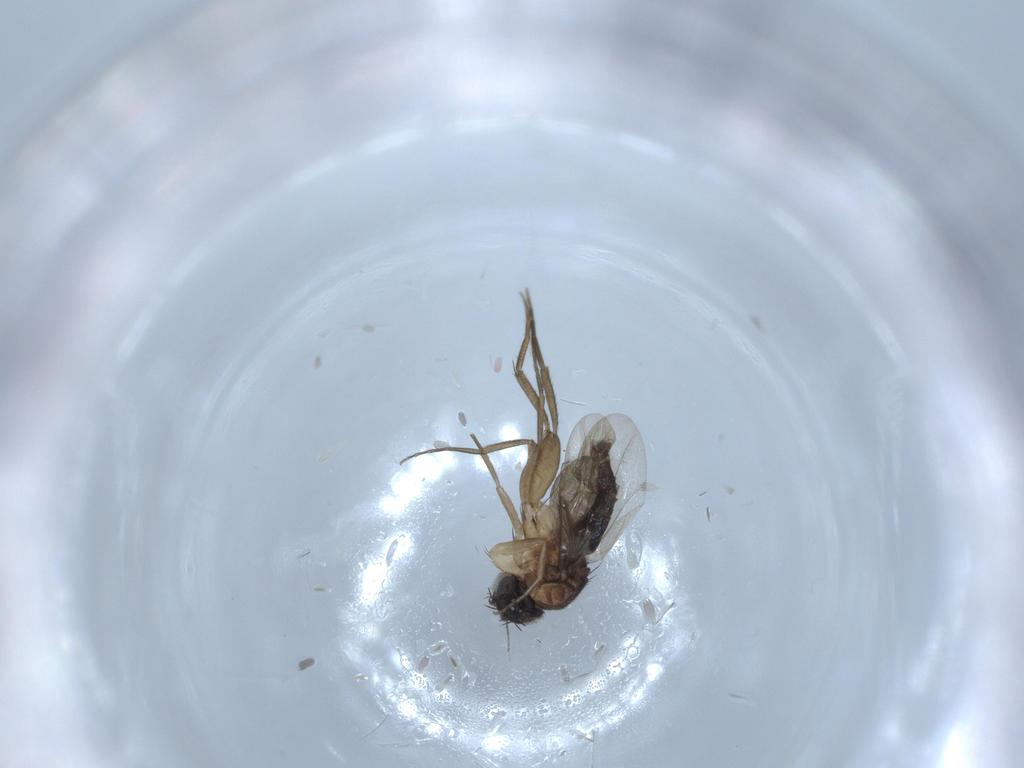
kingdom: Animalia
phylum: Arthropoda
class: Insecta
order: Diptera
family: Phoridae
